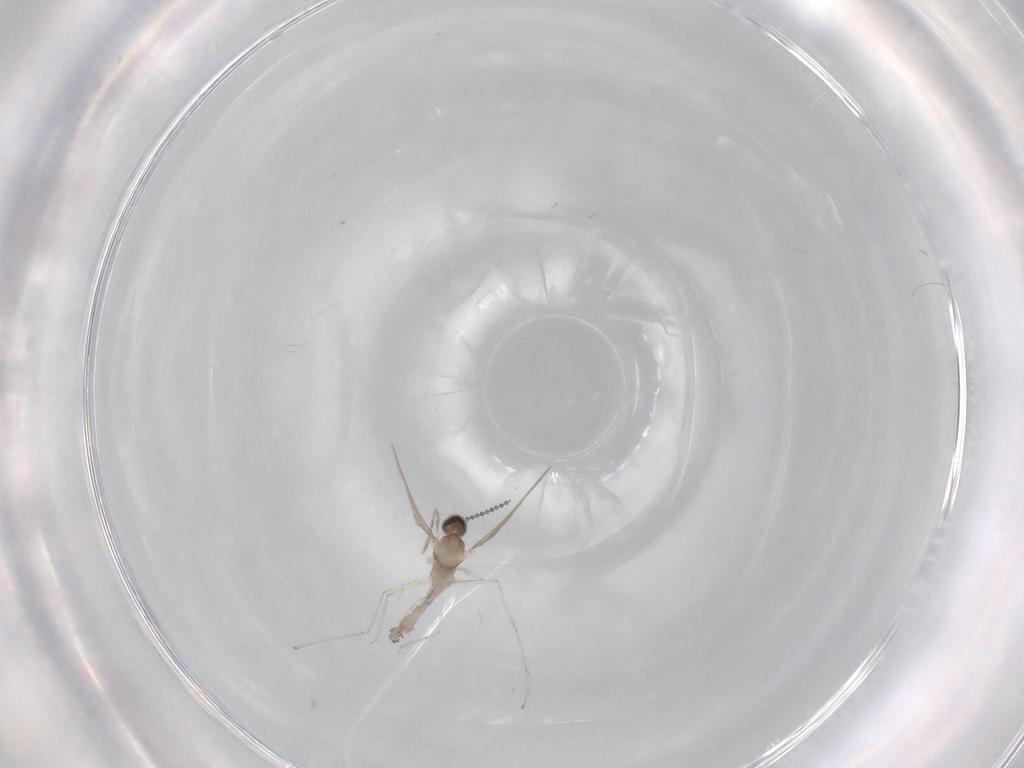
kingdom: Animalia
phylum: Arthropoda
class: Insecta
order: Diptera
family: Cecidomyiidae
